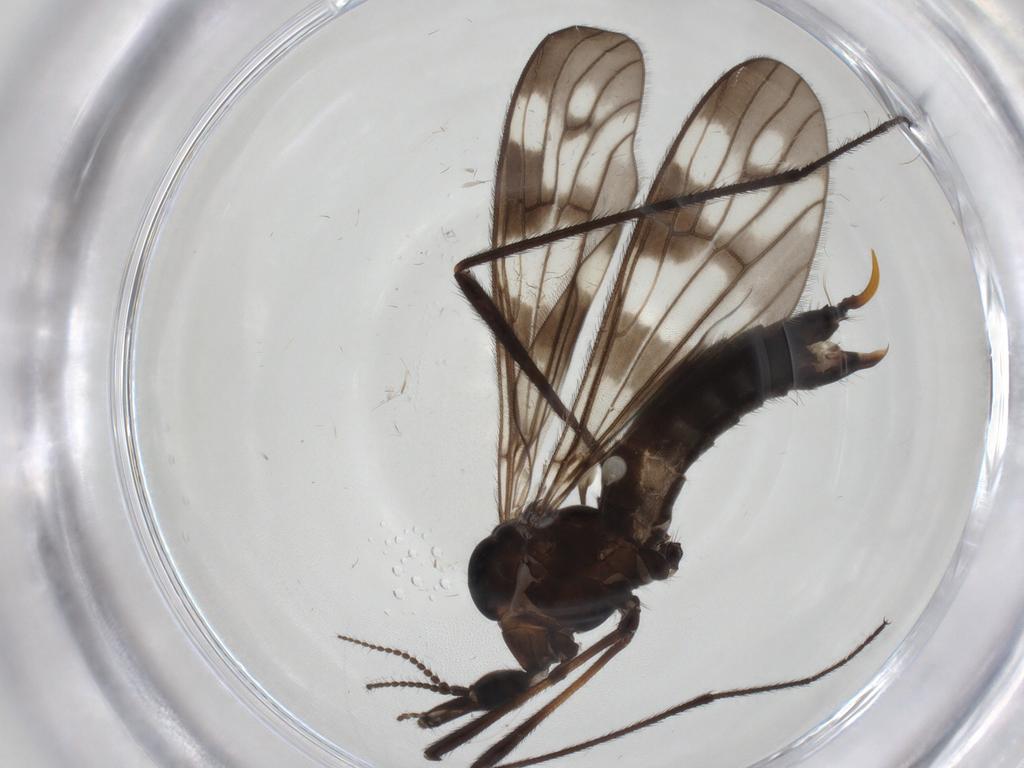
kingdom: Animalia
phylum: Arthropoda
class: Insecta
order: Diptera
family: Limoniidae
